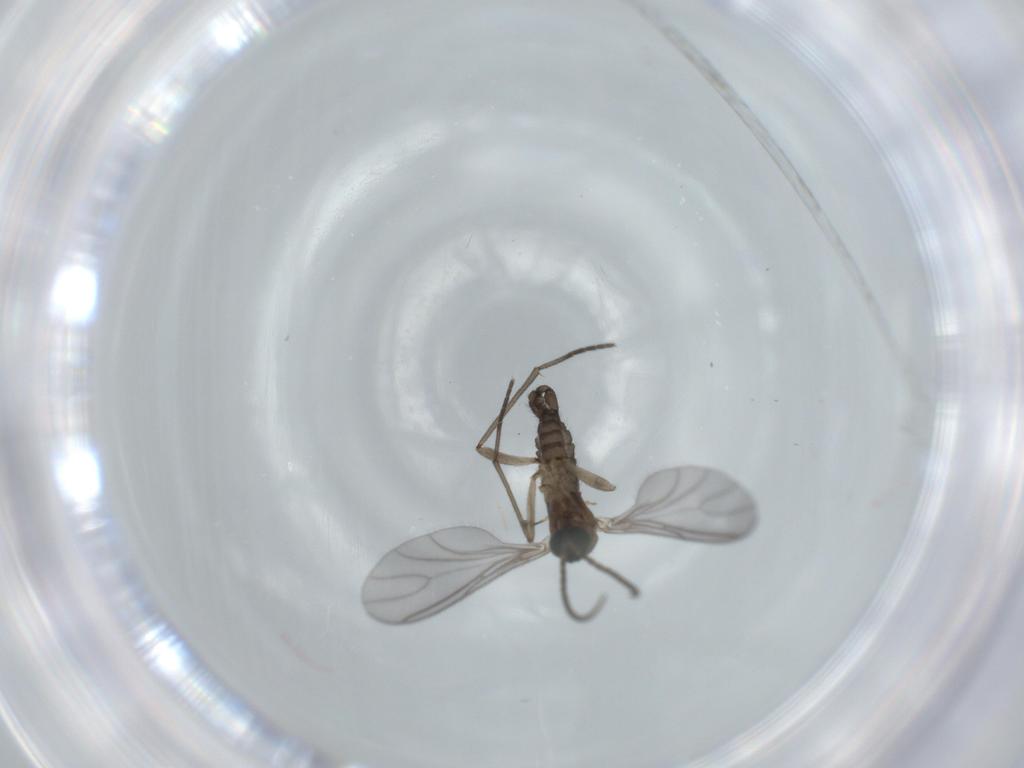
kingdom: Animalia
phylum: Arthropoda
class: Insecta
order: Diptera
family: Sciaridae
